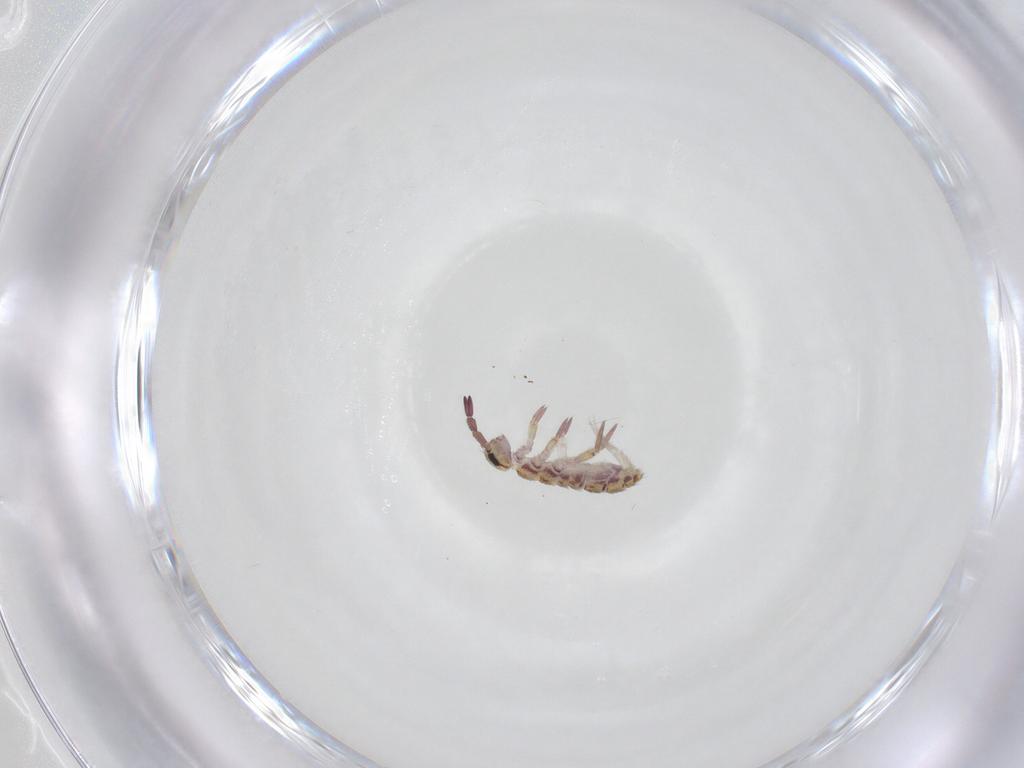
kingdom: Animalia
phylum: Arthropoda
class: Collembola
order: Entomobryomorpha
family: Isotomidae
